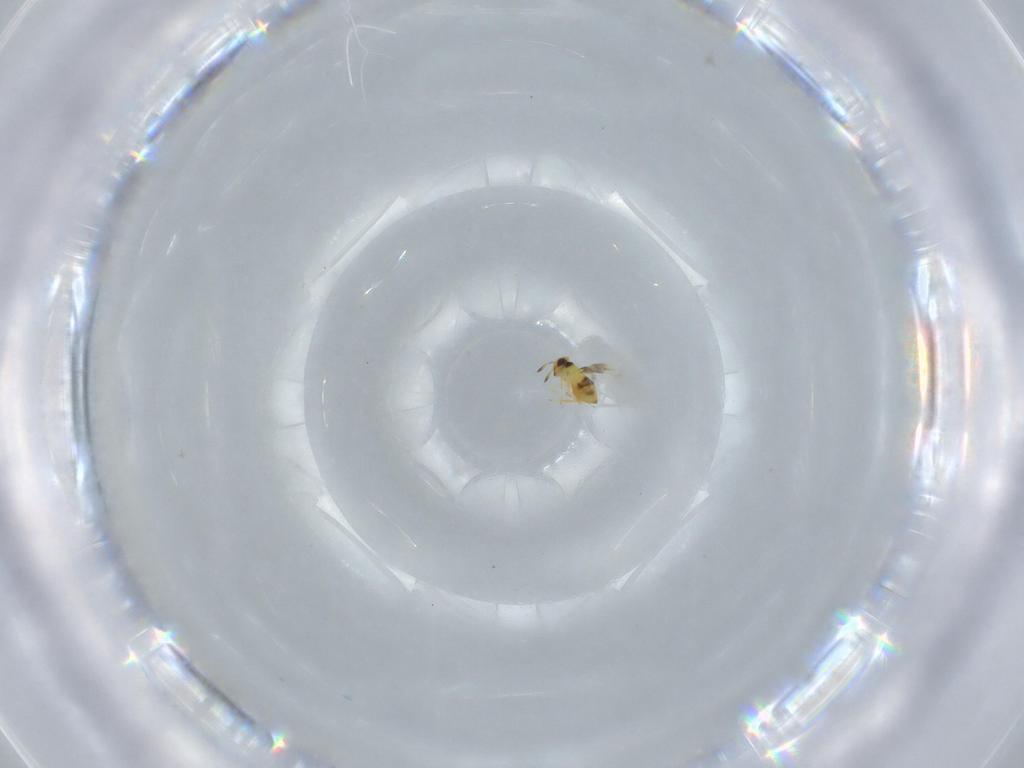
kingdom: Animalia
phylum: Arthropoda
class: Insecta
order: Hymenoptera
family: Signiphoridae
